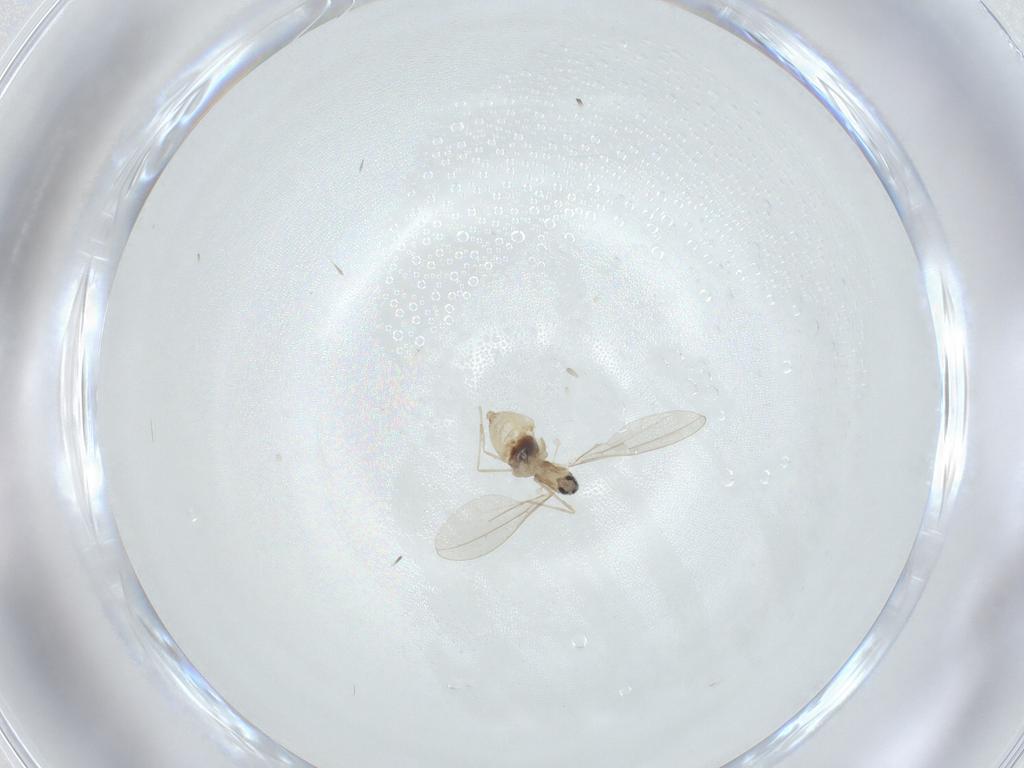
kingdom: Animalia
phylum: Arthropoda
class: Insecta
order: Diptera
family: Cecidomyiidae
